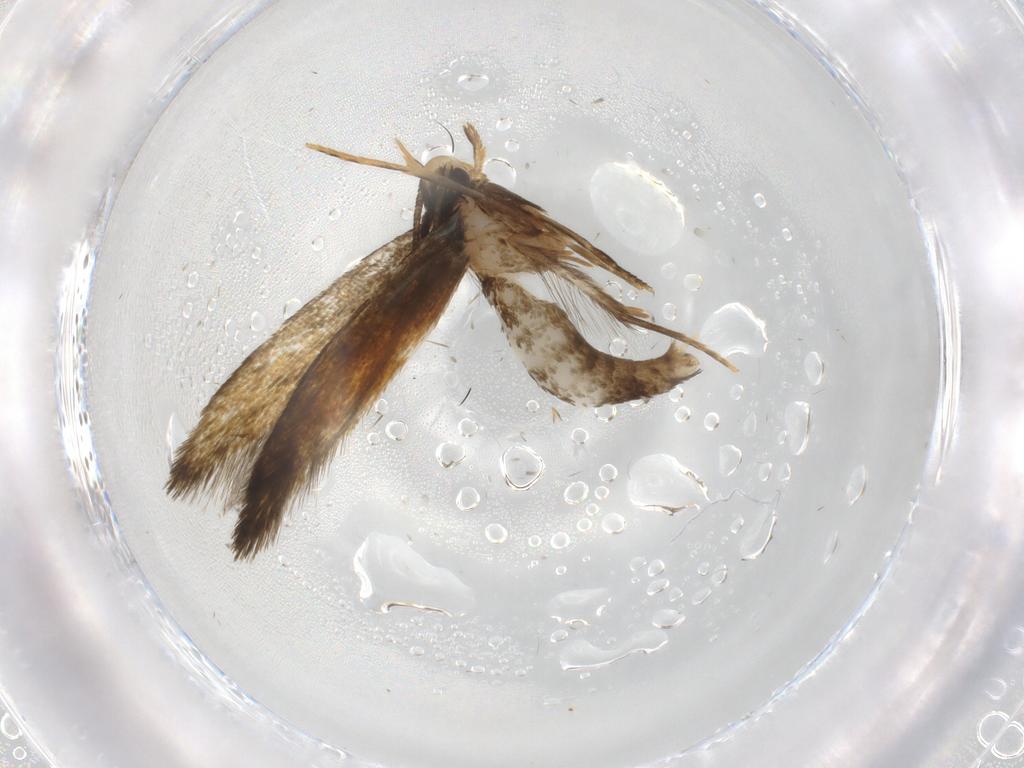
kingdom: Animalia
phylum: Arthropoda
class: Insecta
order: Lepidoptera
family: Tineidae
